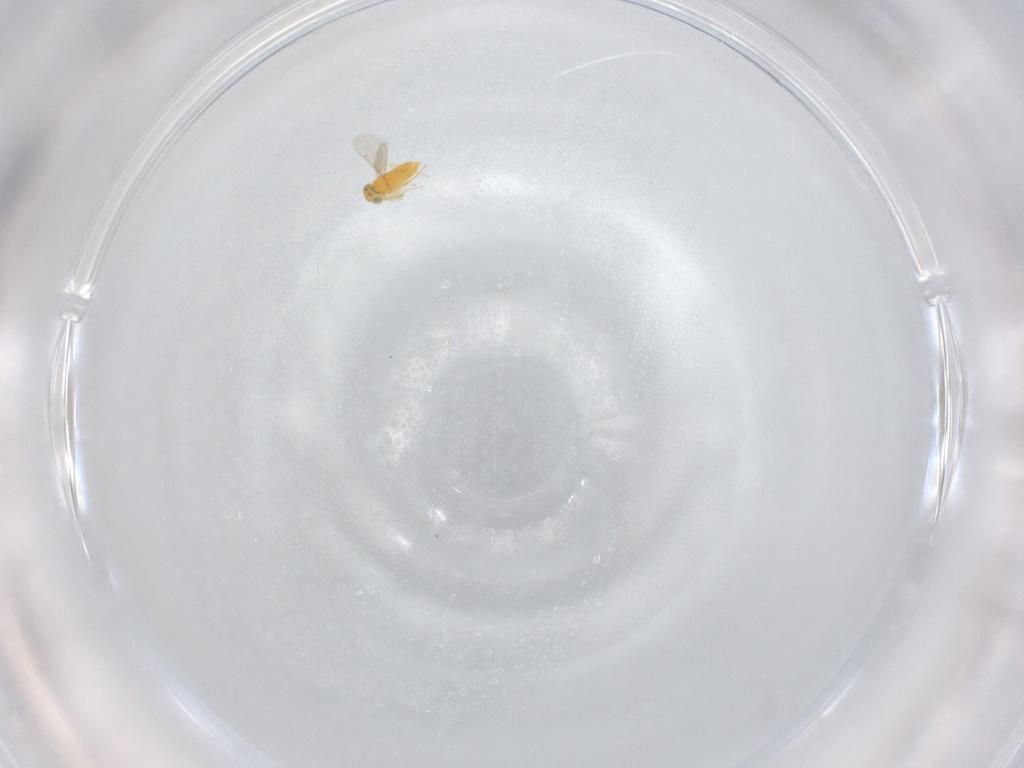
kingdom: Animalia
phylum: Arthropoda
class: Insecta
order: Hymenoptera
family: Aphelinidae
